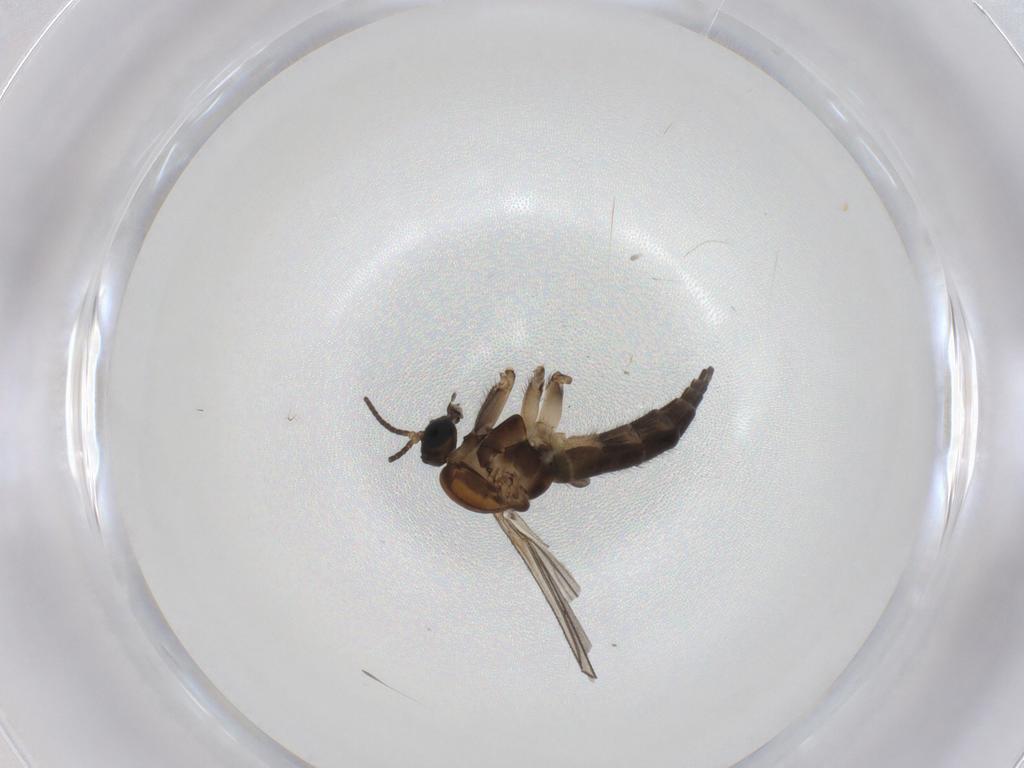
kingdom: Animalia
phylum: Arthropoda
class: Insecta
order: Diptera
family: Sciaridae
